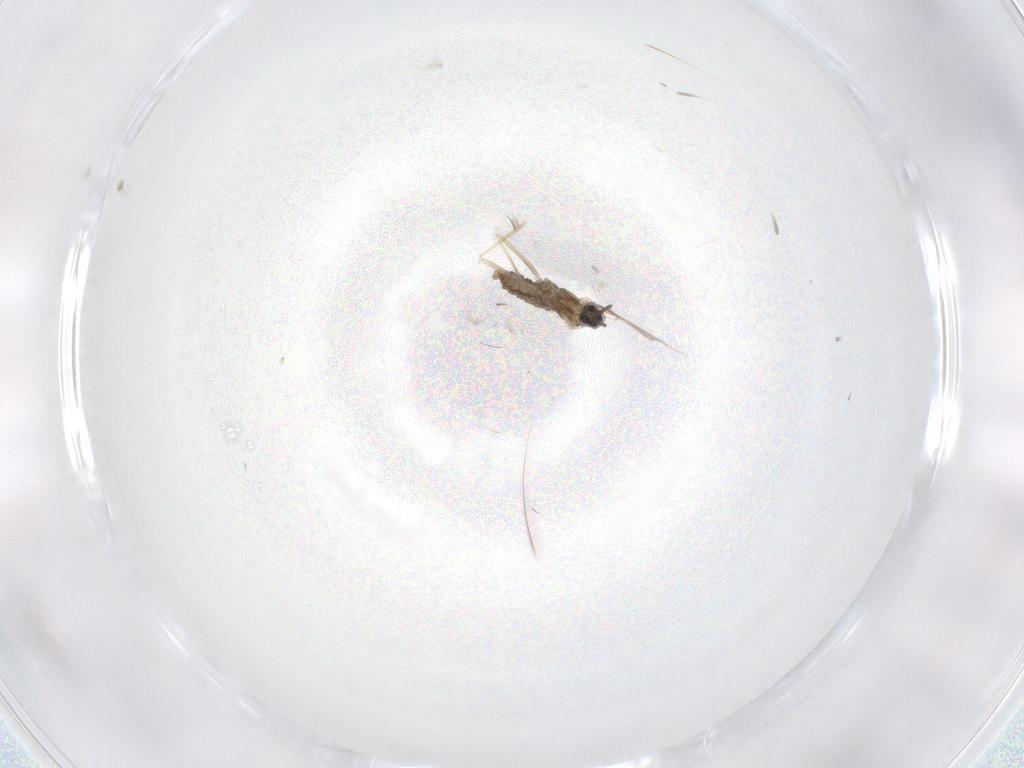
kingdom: Animalia
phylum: Arthropoda
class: Insecta
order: Diptera
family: Cecidomyiidae
